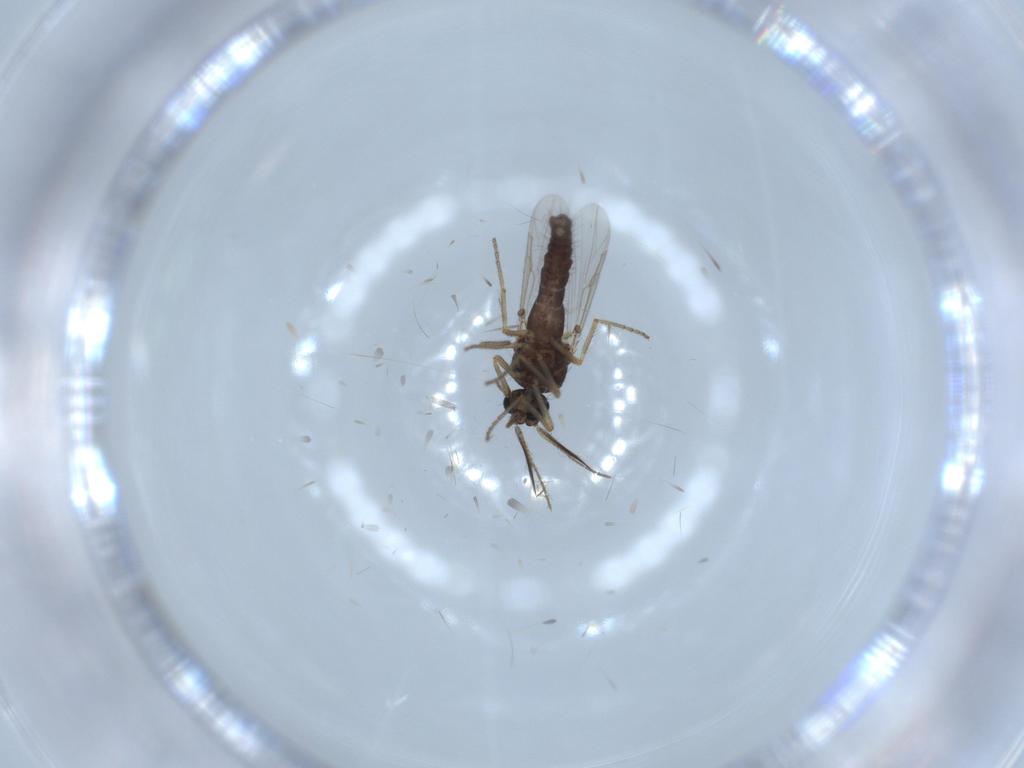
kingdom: Animalia
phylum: Arthropoda
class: Insecta
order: Diptera
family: Ceratopogonidae
